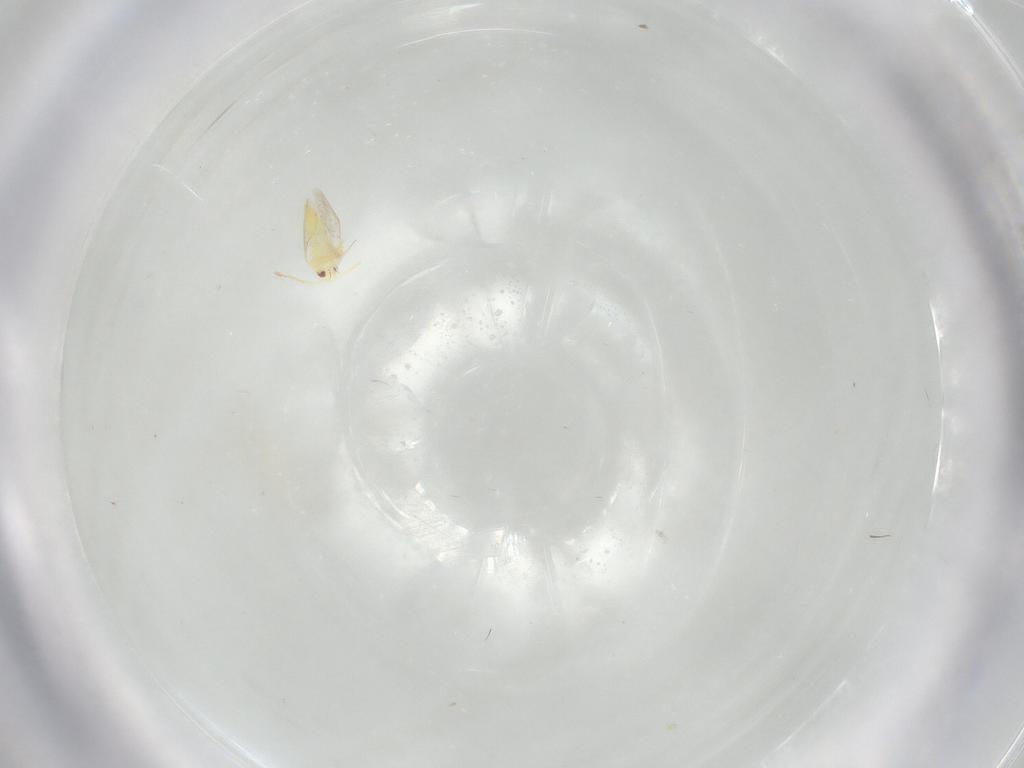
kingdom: Animalia
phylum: Arthropoda
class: Insecta
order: Hemiptera
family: Aleyrodidae
